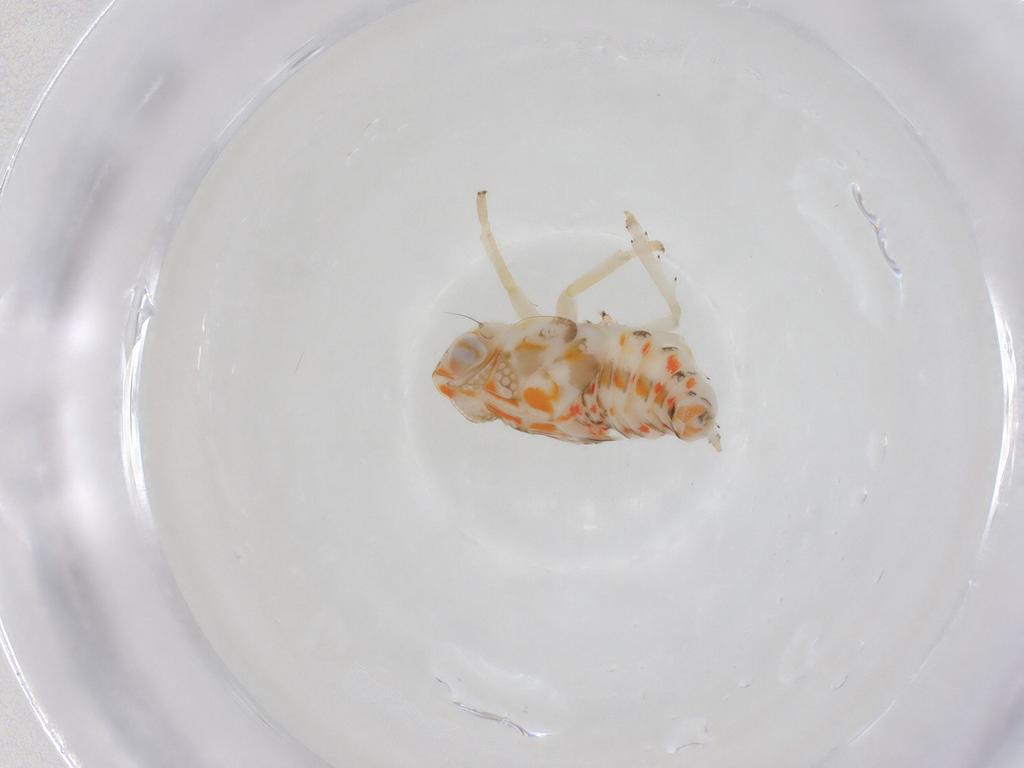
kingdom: Animalia
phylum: Arthropoda
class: Insecta
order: Hemiptera
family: Nogodinidae
